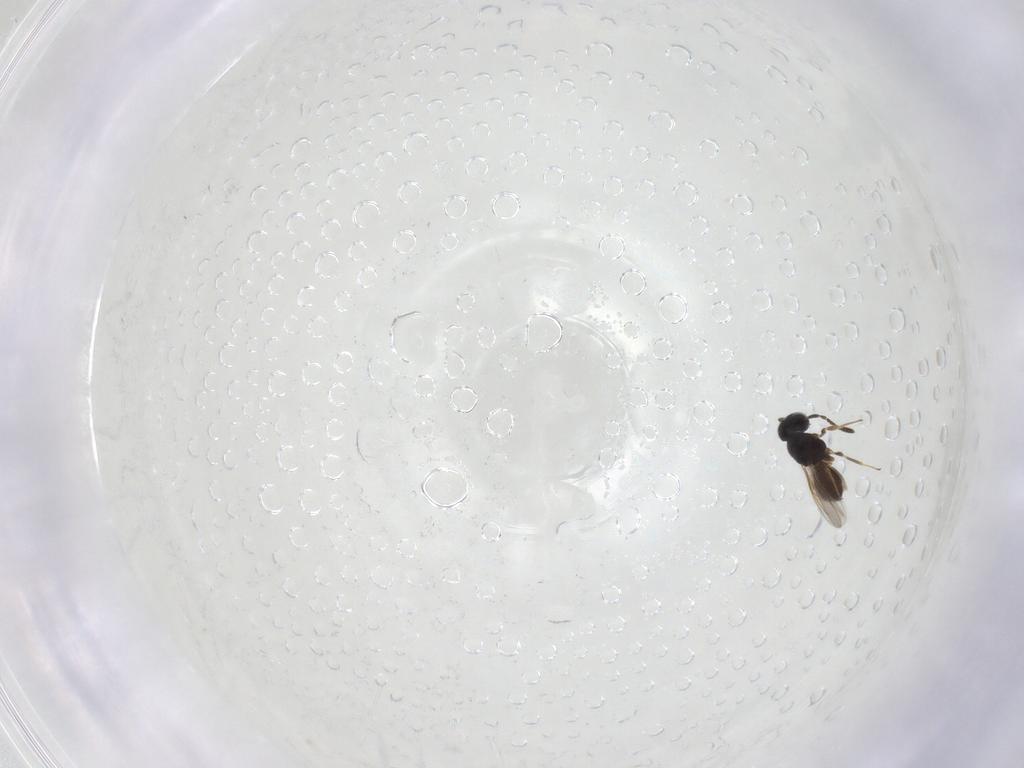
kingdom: Animalia
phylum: Arthropoda
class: Insecta
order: Hymenoptera
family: Scelionidae
